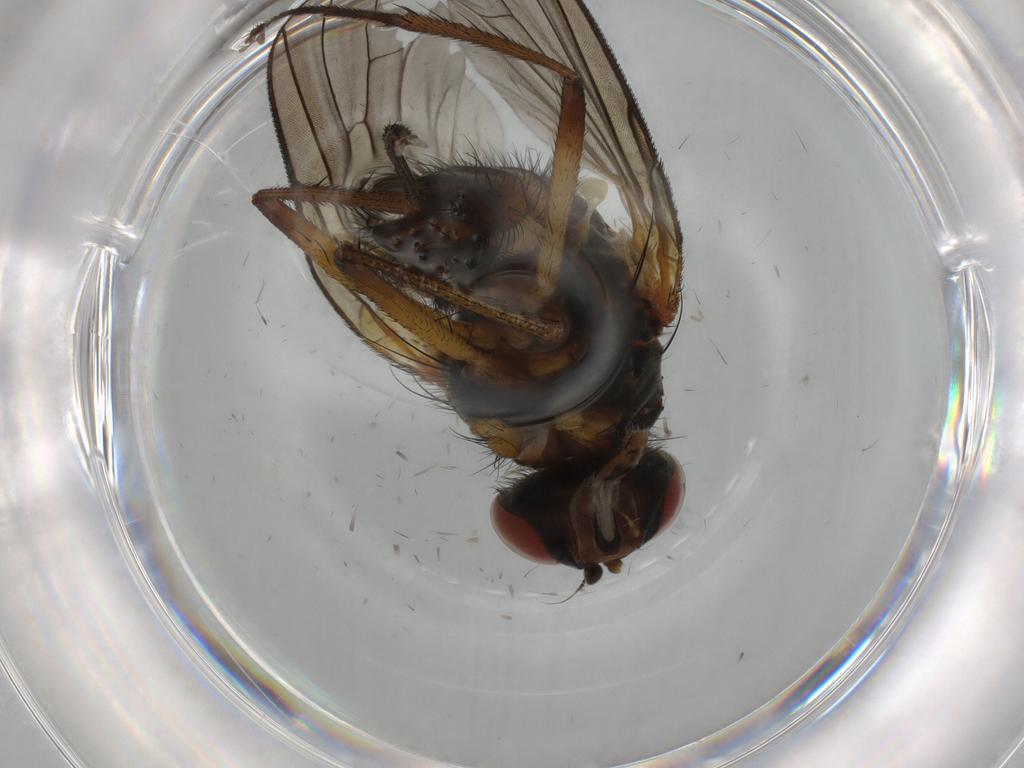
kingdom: Animalia
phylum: Arthropoda
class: Insecta
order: Diptera
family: Anthomyiidae
